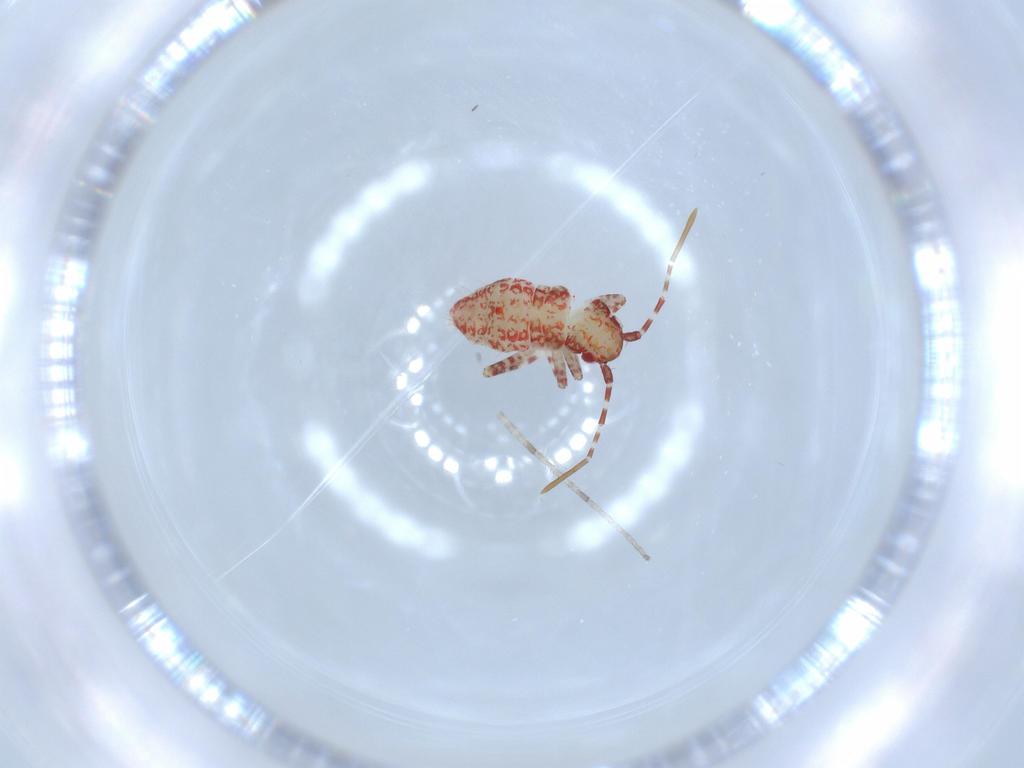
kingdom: Animalia
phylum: Arthropoda
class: Insecta
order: Hemiptera
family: Miridae
